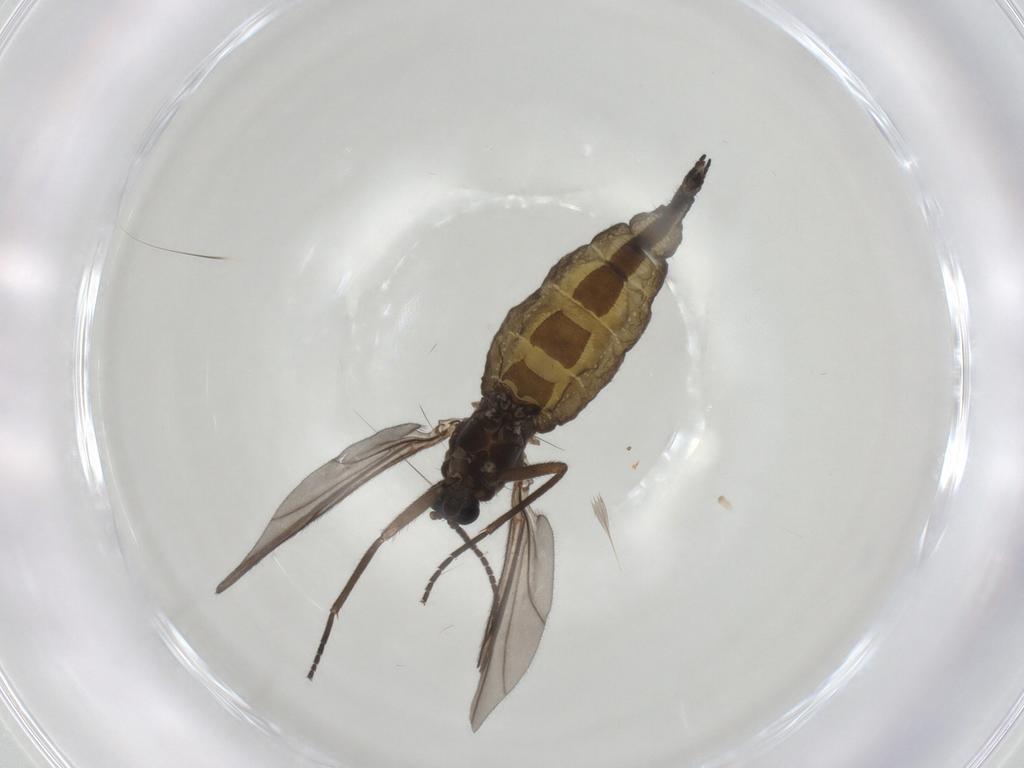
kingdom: Animalia
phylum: Arthropoda
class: Insecta
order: Diptera
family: Sciaridae
